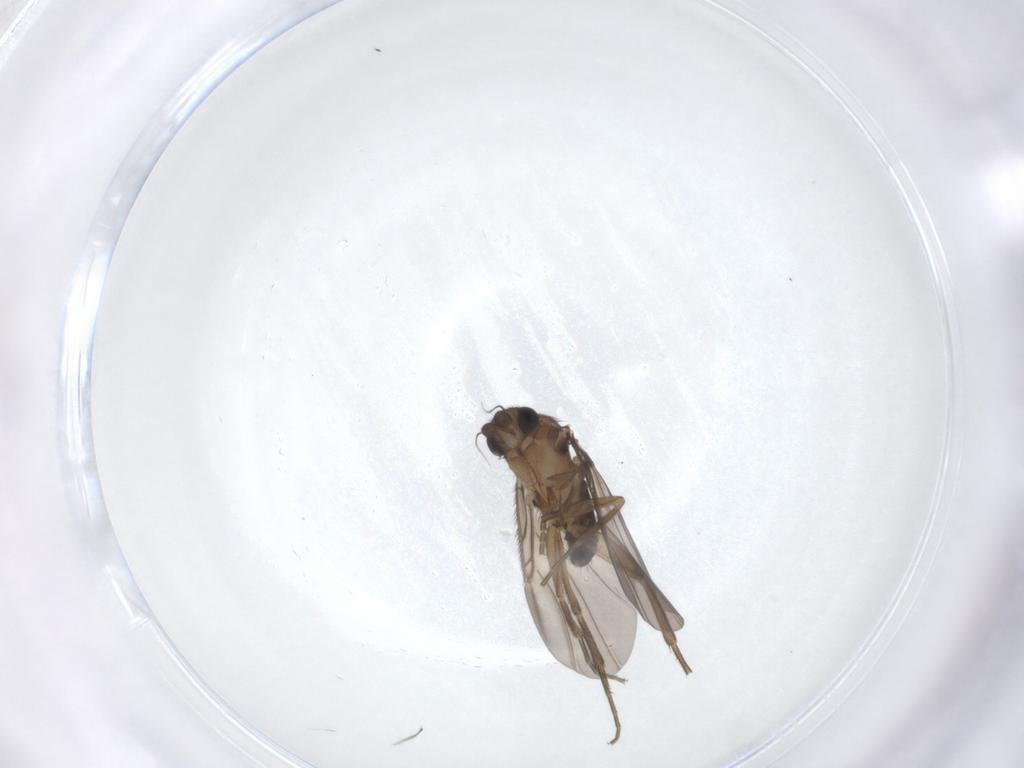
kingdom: Animalia
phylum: Arthropoda
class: Insecta
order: Diptera
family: Phoridae
